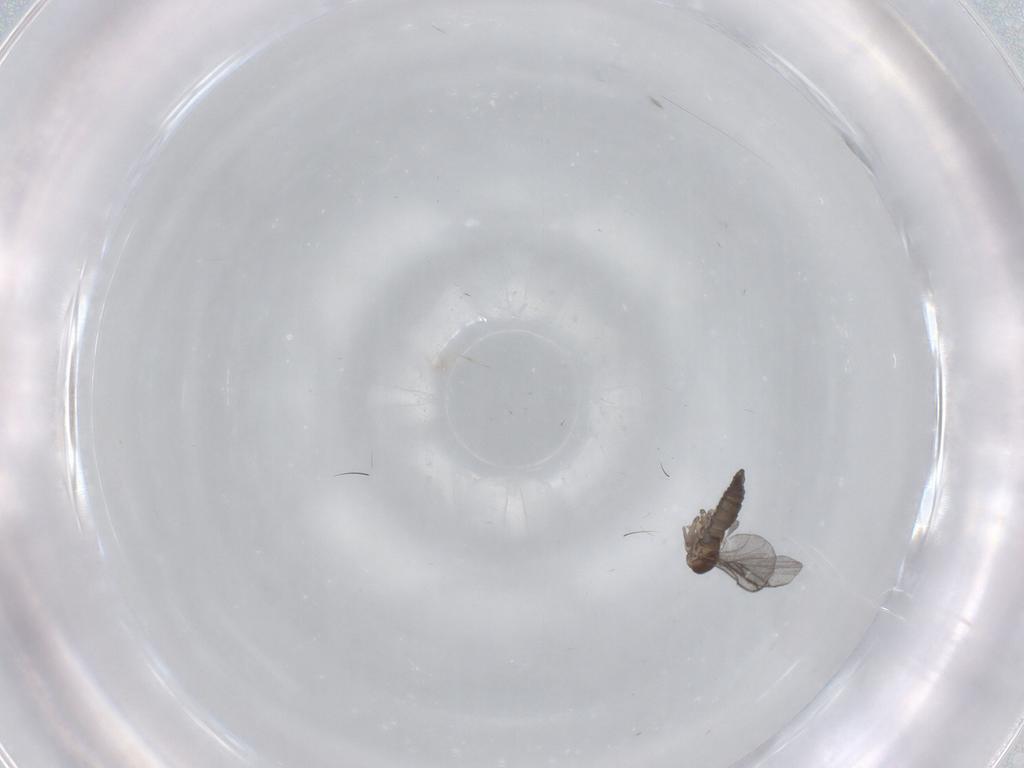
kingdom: Animalia
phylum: Arthropoda
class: Insecta
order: Diptera
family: Cecidomyiidae
